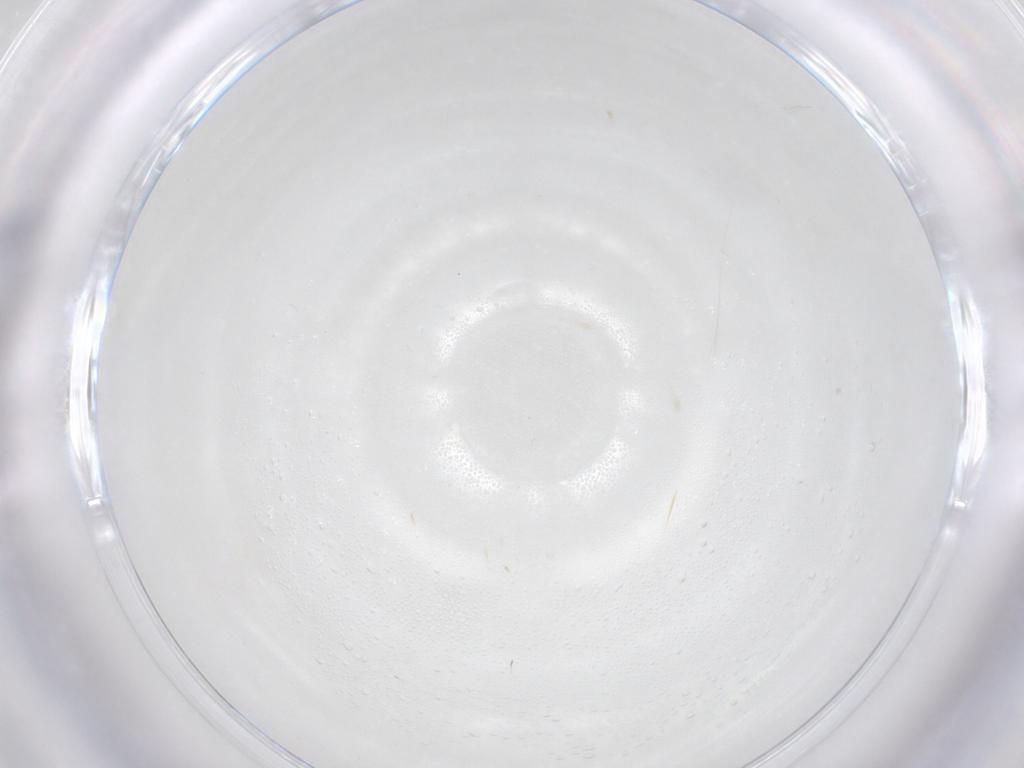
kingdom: Animalia
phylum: Arthropoda
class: Insecta
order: Diptera
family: Cecidomyiidae
